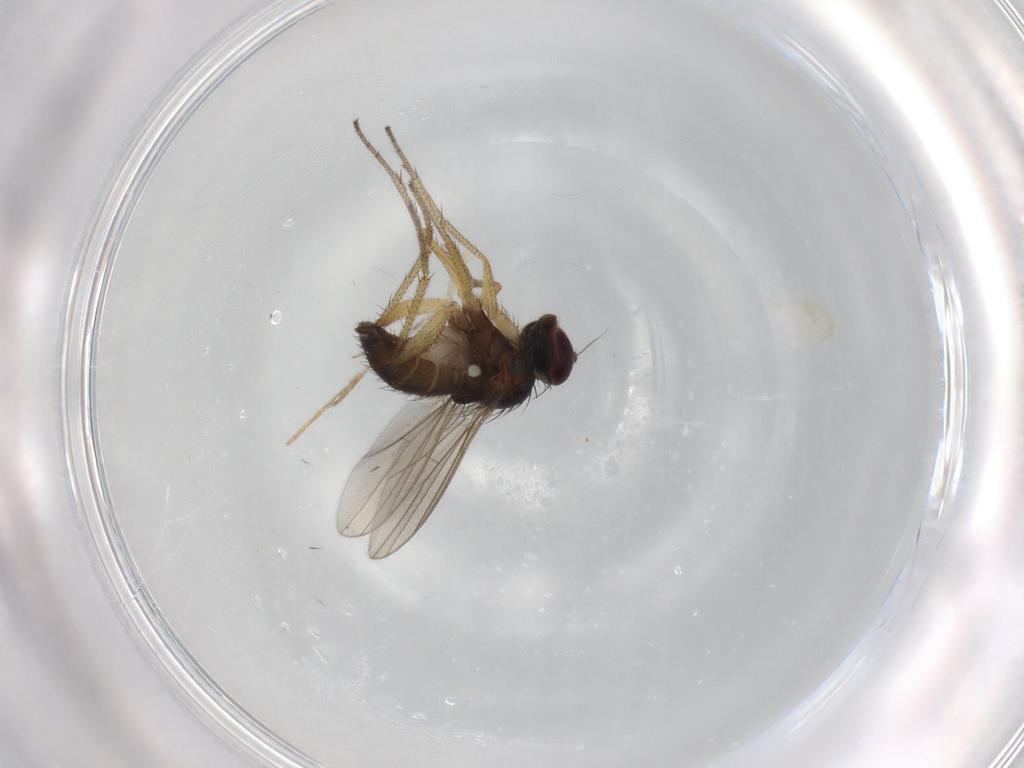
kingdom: Animalia
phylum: Arthropoda
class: Insecta
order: Diptera
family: Dolichopodidae
